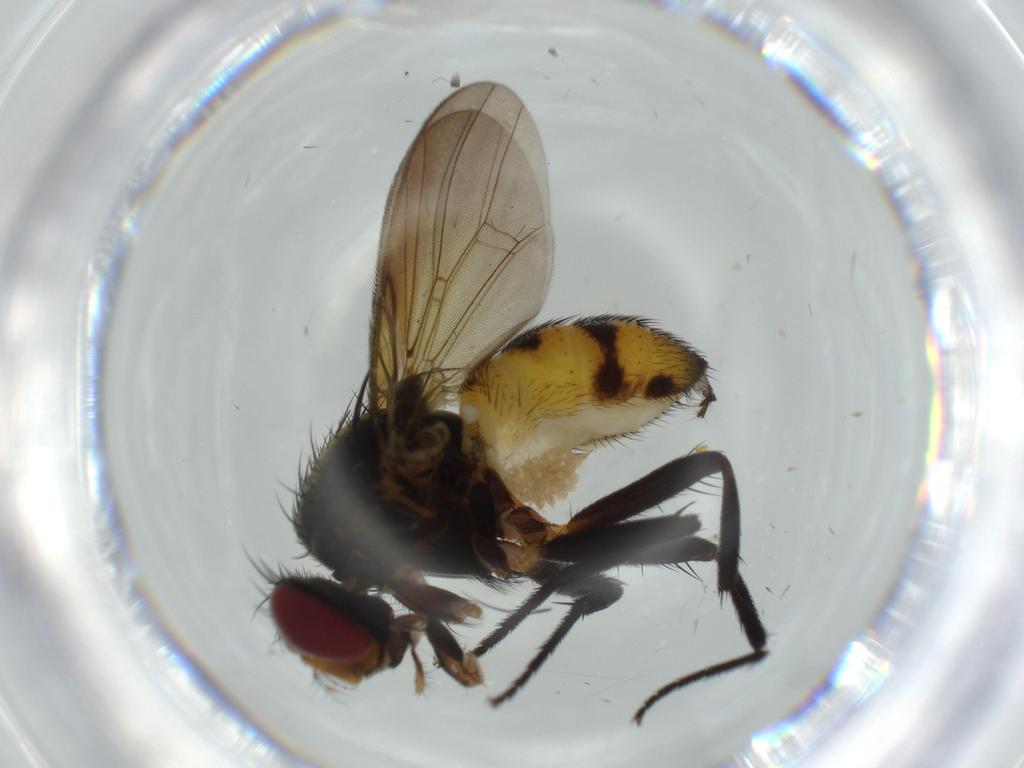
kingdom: Animalia
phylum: Arthropoda
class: Insecta
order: Diptera
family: Anthomyiidae
